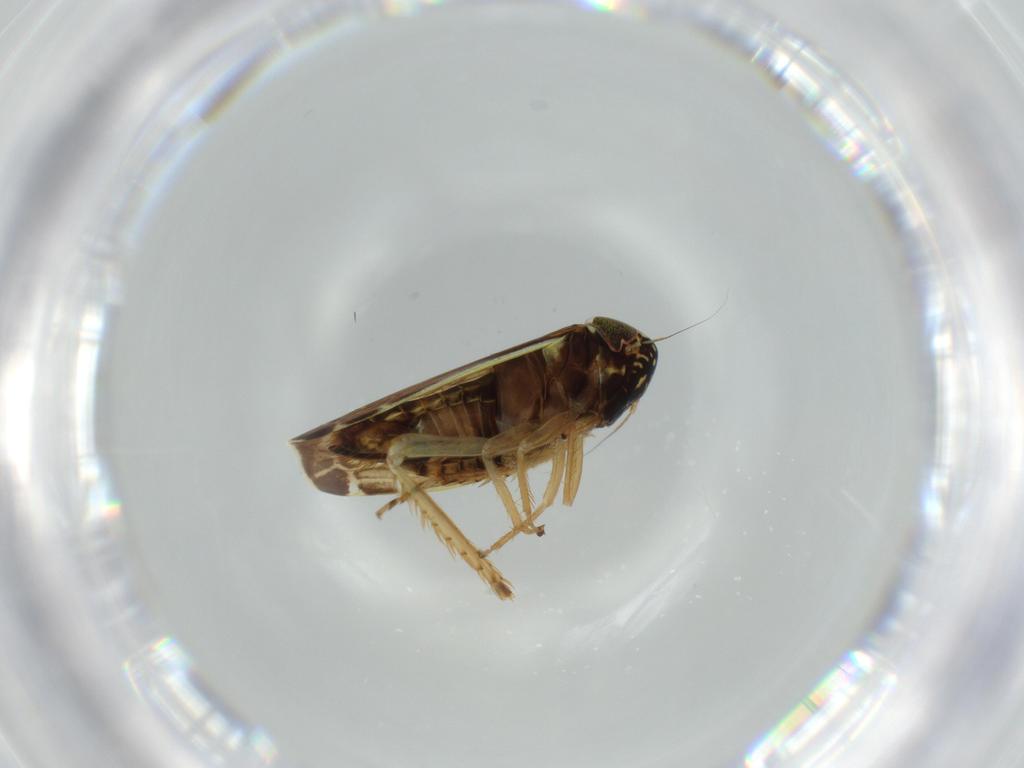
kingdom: Animalia
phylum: Arthropoda
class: Insecta
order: Hemiptera
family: Cicadellidae
